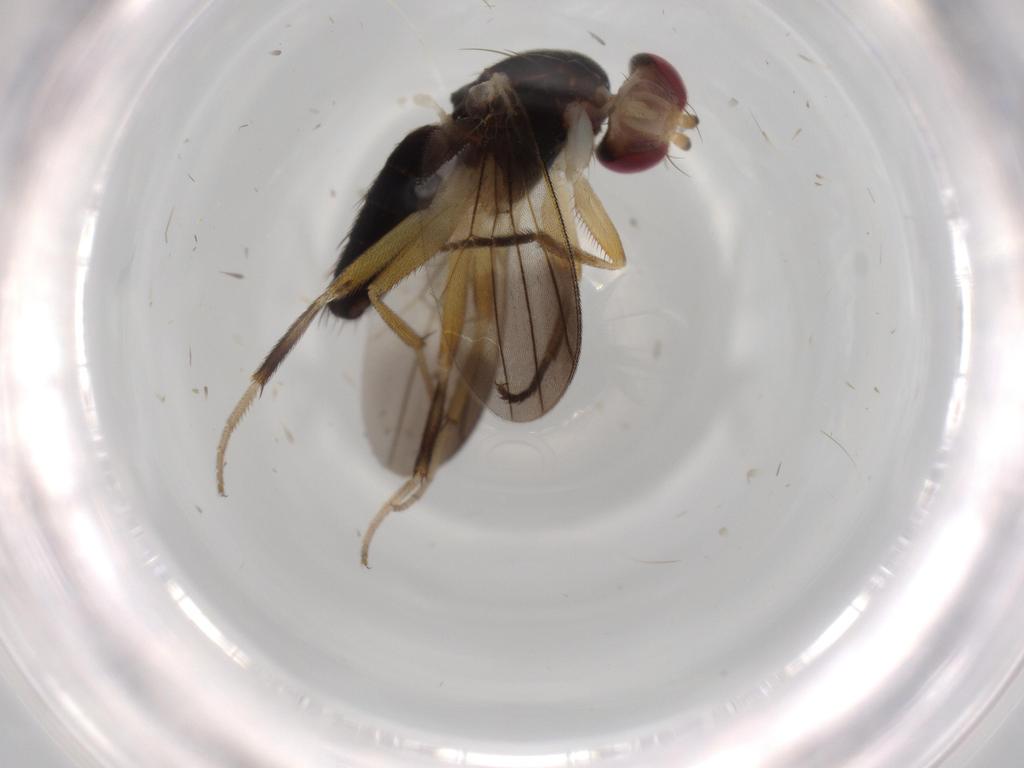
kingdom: Animalia
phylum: Arthropoda
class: Insecta
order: Diptera
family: Clusiidae
